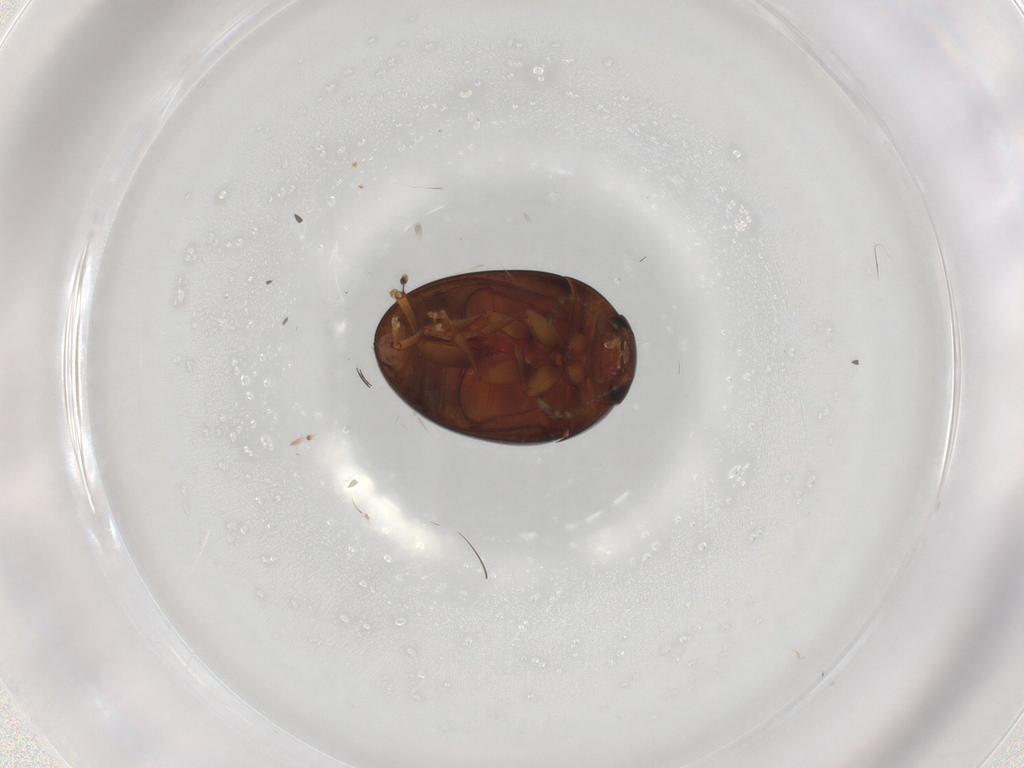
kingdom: Animalia
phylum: Arthropoda
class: Insecta
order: Coleoptera
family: Phalacridae
